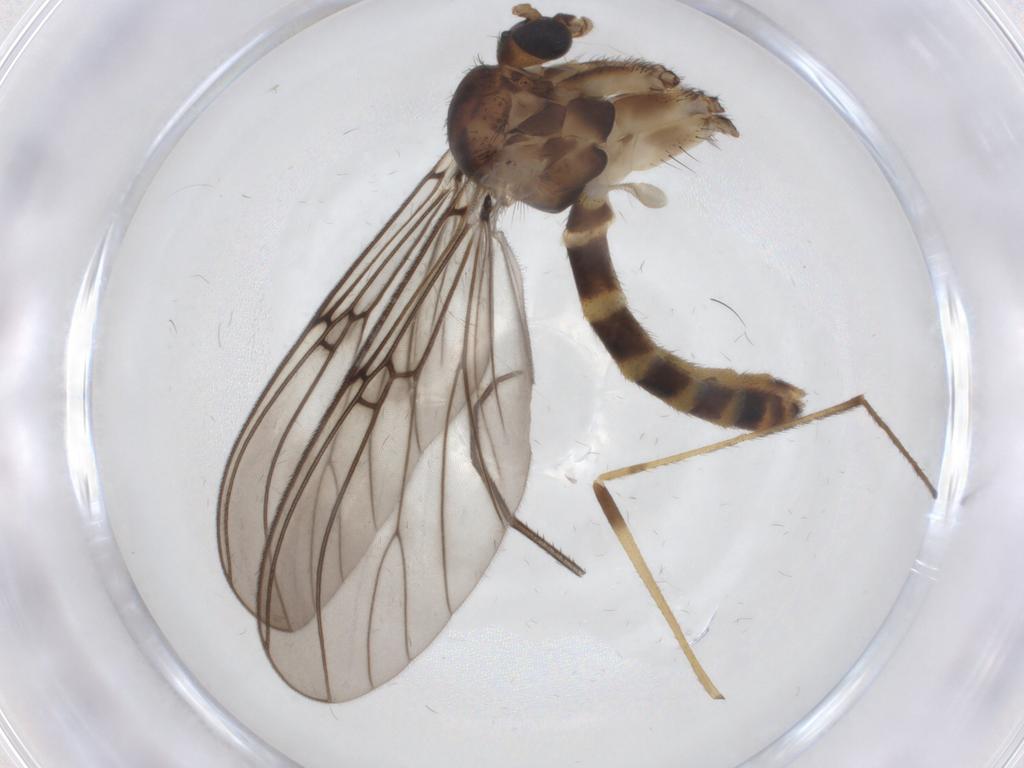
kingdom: Animalia
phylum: Arthropoda
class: Insecta
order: Diptera
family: Mycetophilidae
